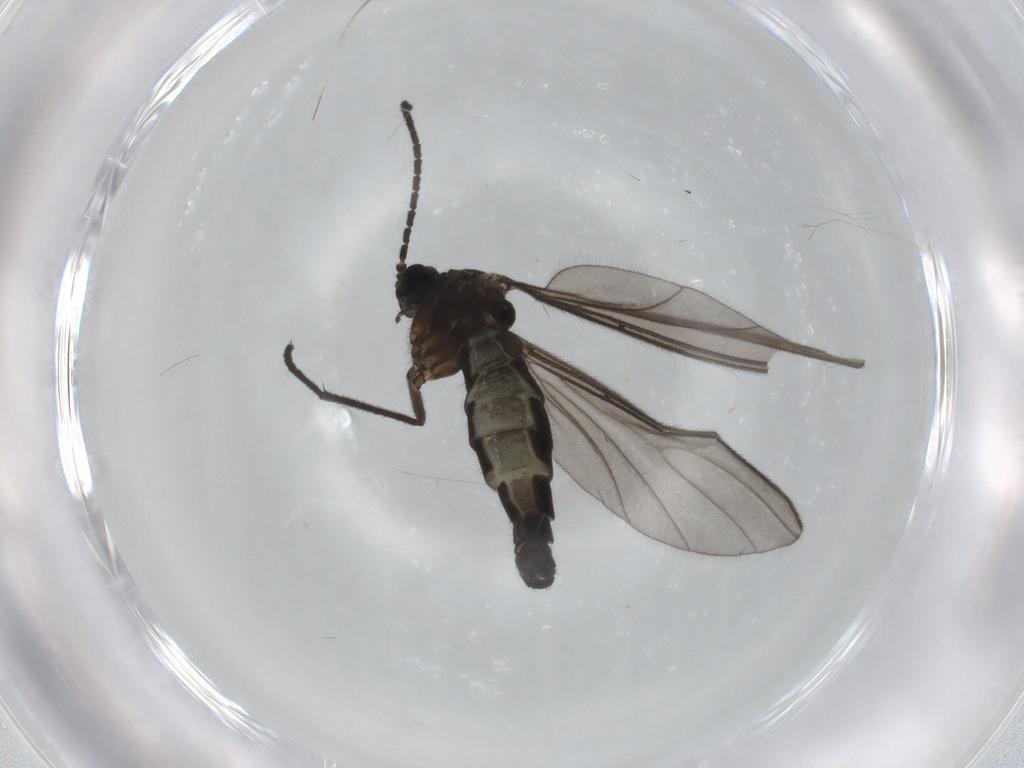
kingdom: Animalia
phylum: Arthropoda
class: Insecta
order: Diptera
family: Sciaridae
